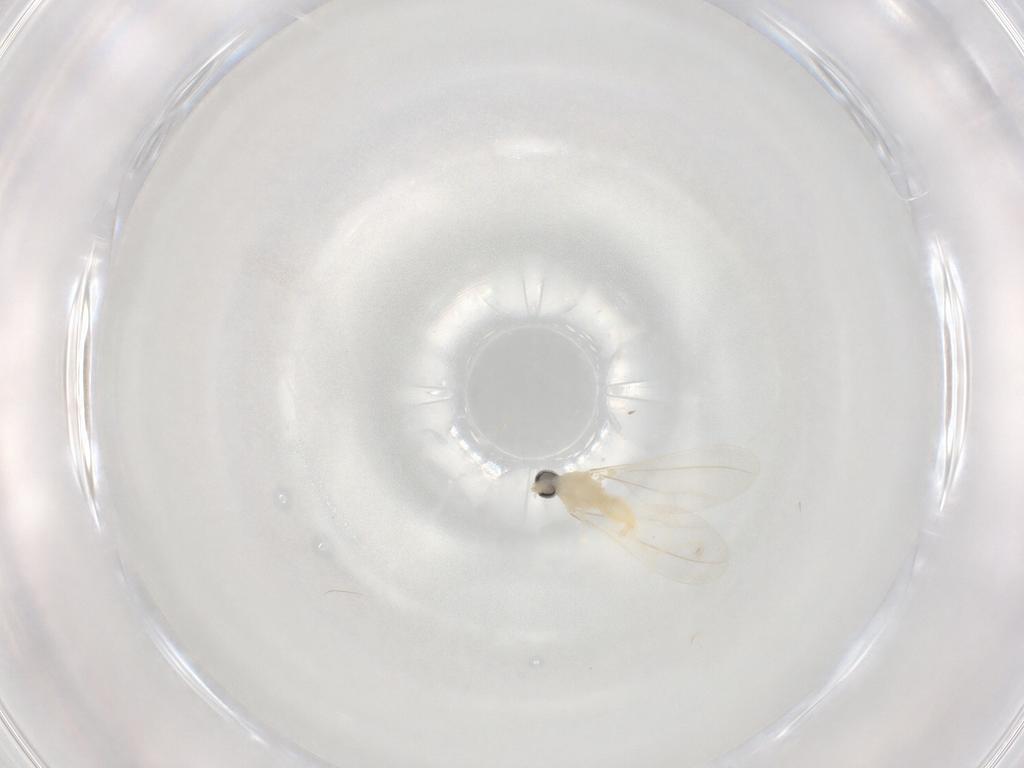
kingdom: Animalia
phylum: Arthropoda
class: Insecta
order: Diptera
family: Cecidomyiidae
